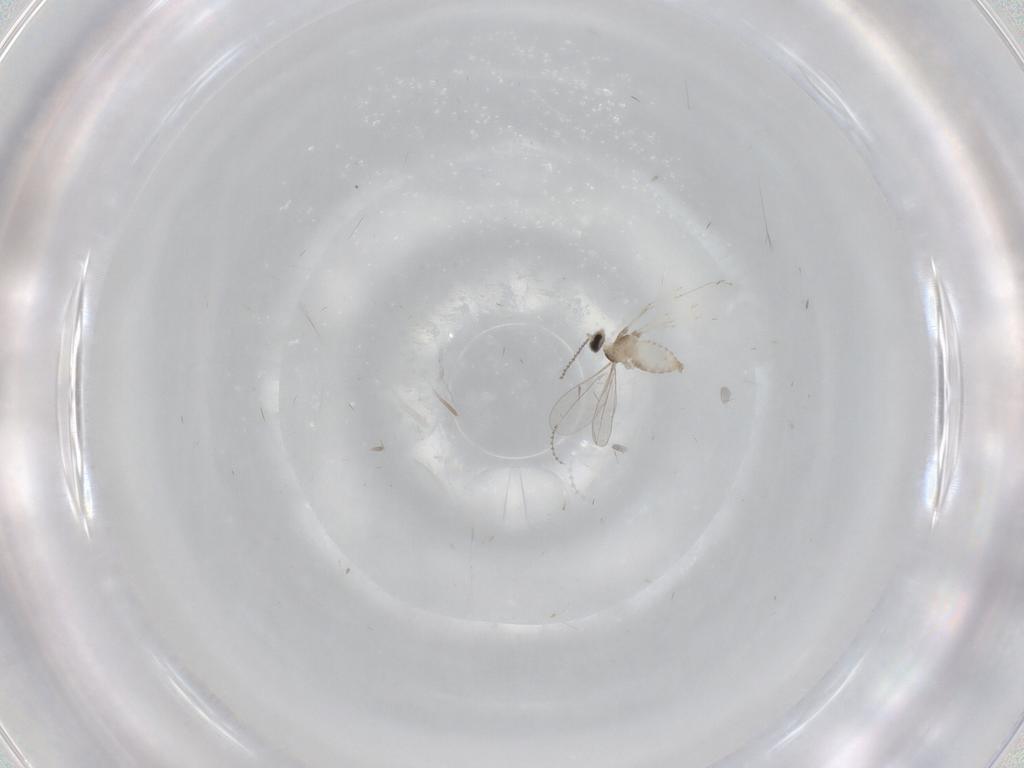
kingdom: Animalia
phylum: Arthropoda
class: Insecta
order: Diptera
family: Cecidomyiidae
